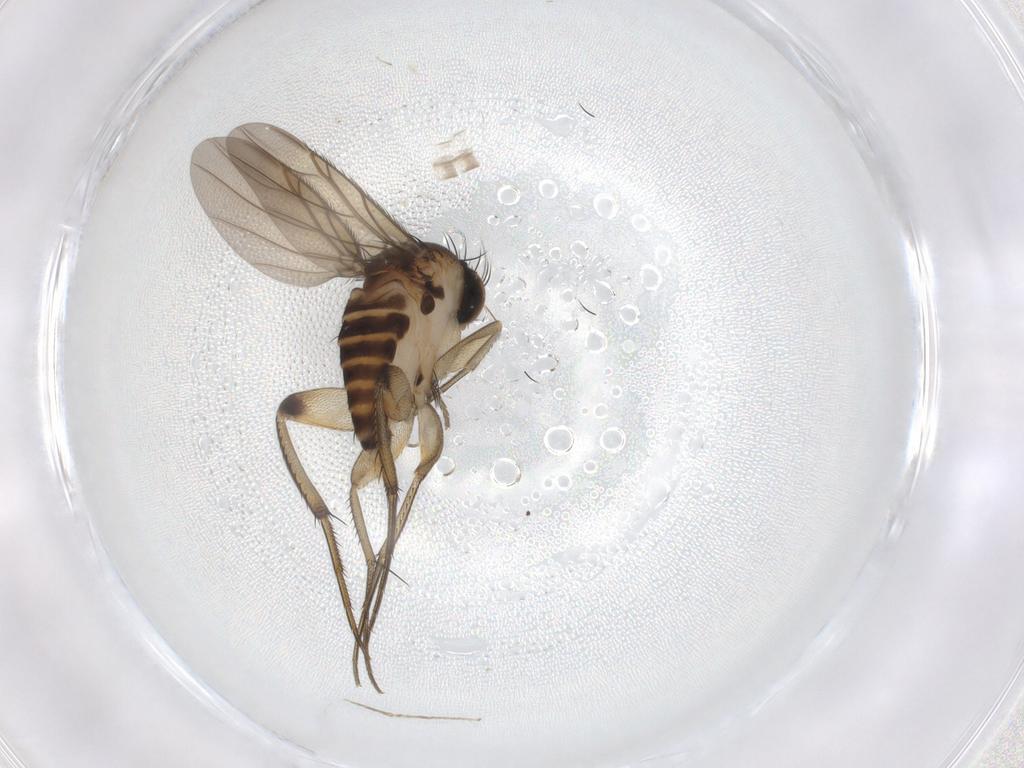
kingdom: Animalia
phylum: Arthropoda
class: Insecta
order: Diptera
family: Phoridae
